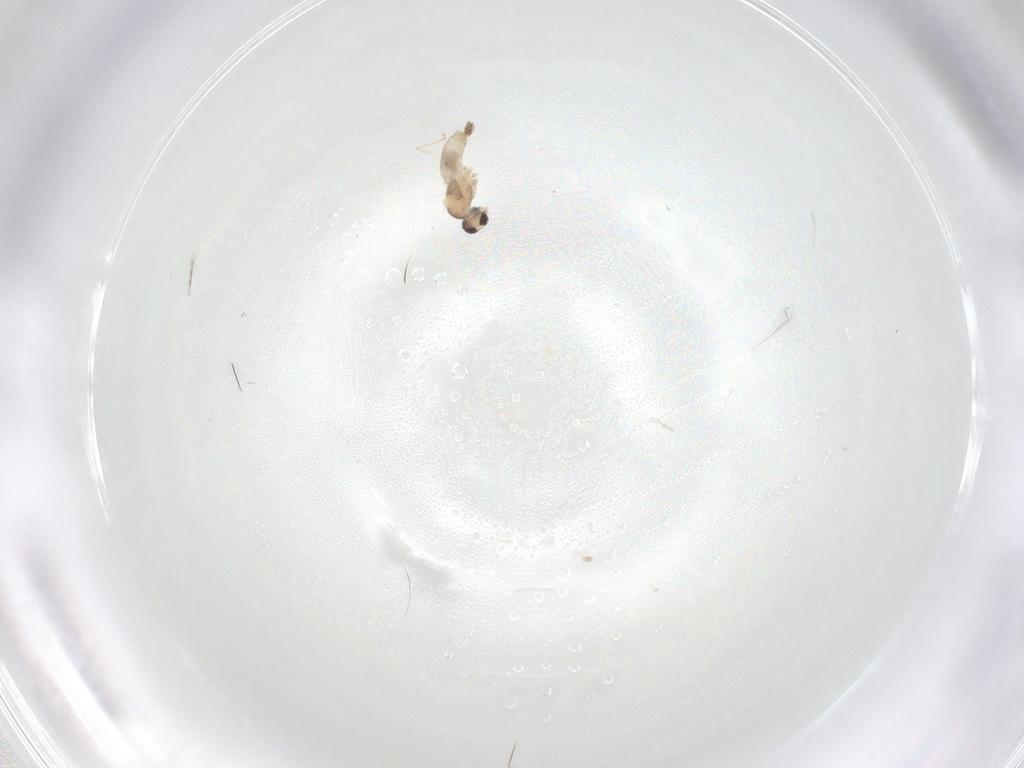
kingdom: Animalia
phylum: Arthropoda
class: Insecta
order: Diptera
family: Cecidomyiidae
